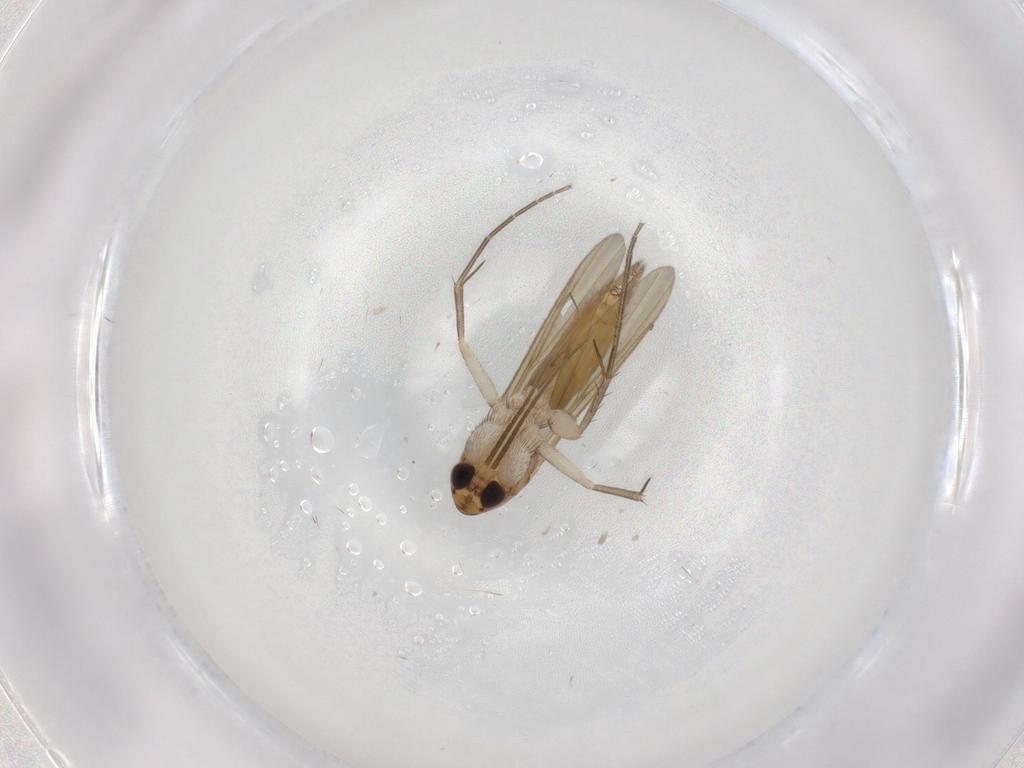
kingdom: Animalia
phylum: Arthropoda
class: Insecta
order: Diptera
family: Mycetophilidae
